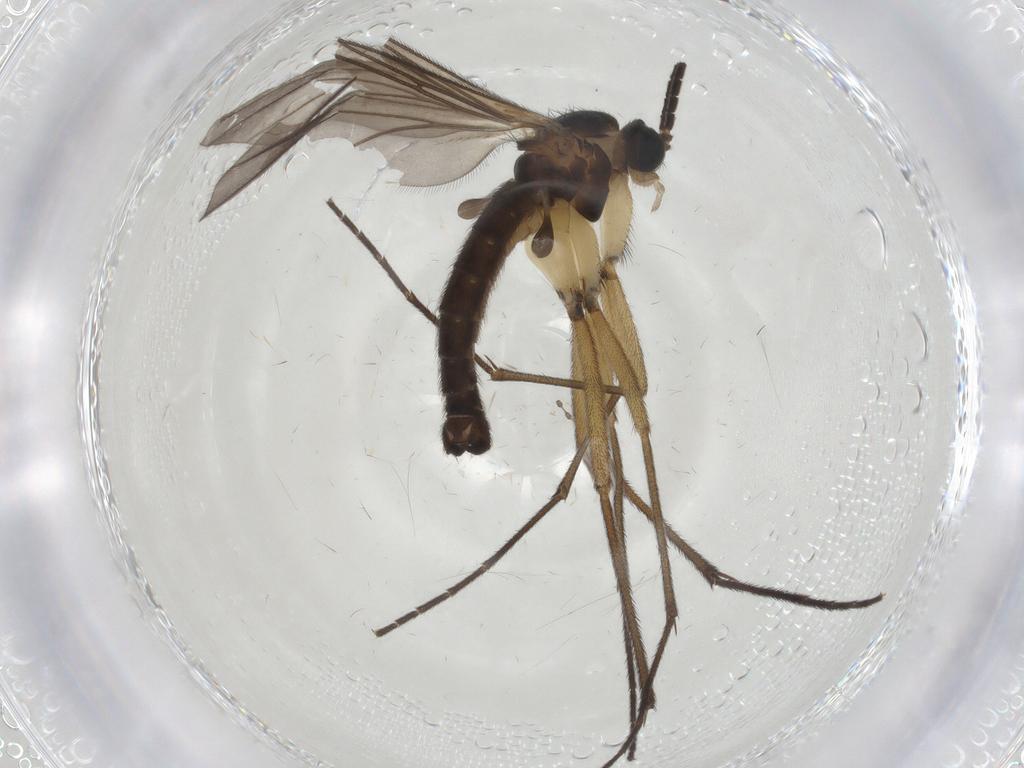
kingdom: Animalia
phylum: Arthropoda
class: Insecta
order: Diptera
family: Sciaridae
